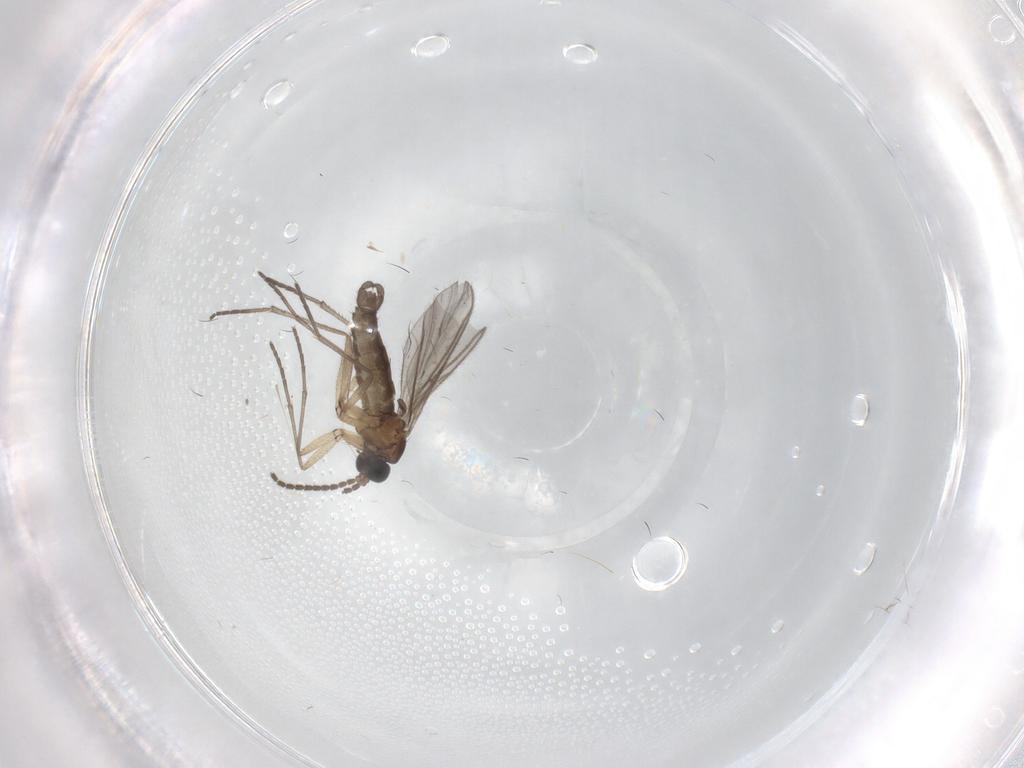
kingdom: Animalia
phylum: Arthropoda
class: Insecta
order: Diptera
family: Sciaridae
